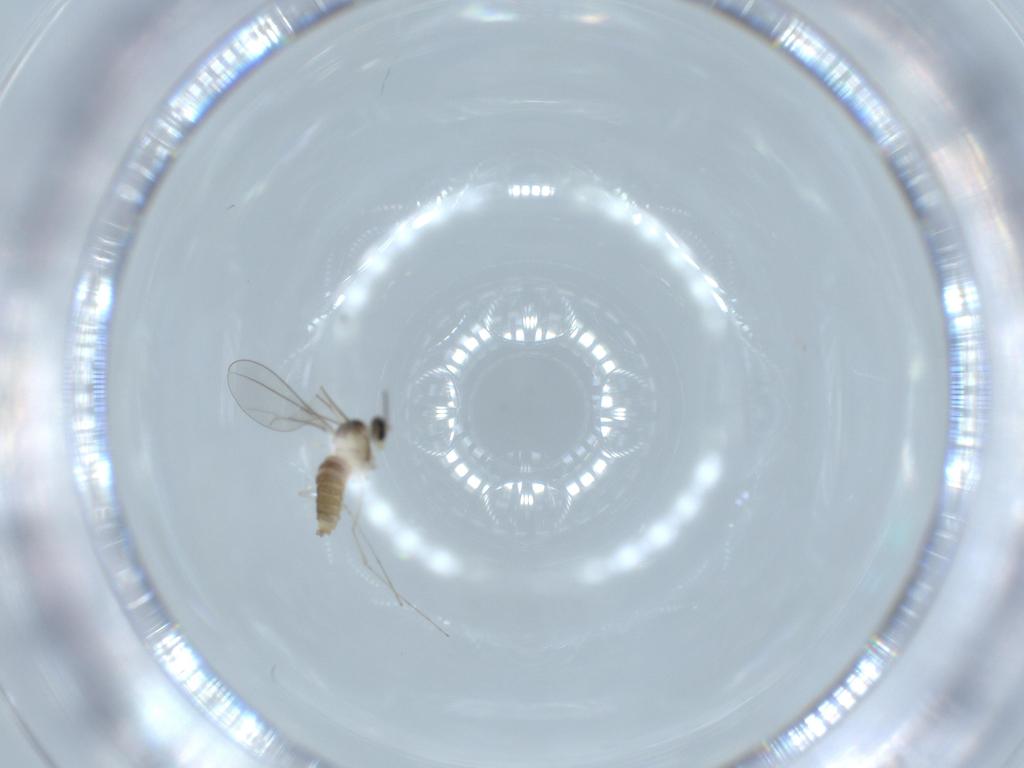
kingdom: Animalia
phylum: Arthropoda
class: Insecta
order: Diptera
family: Cecidomyiidae
